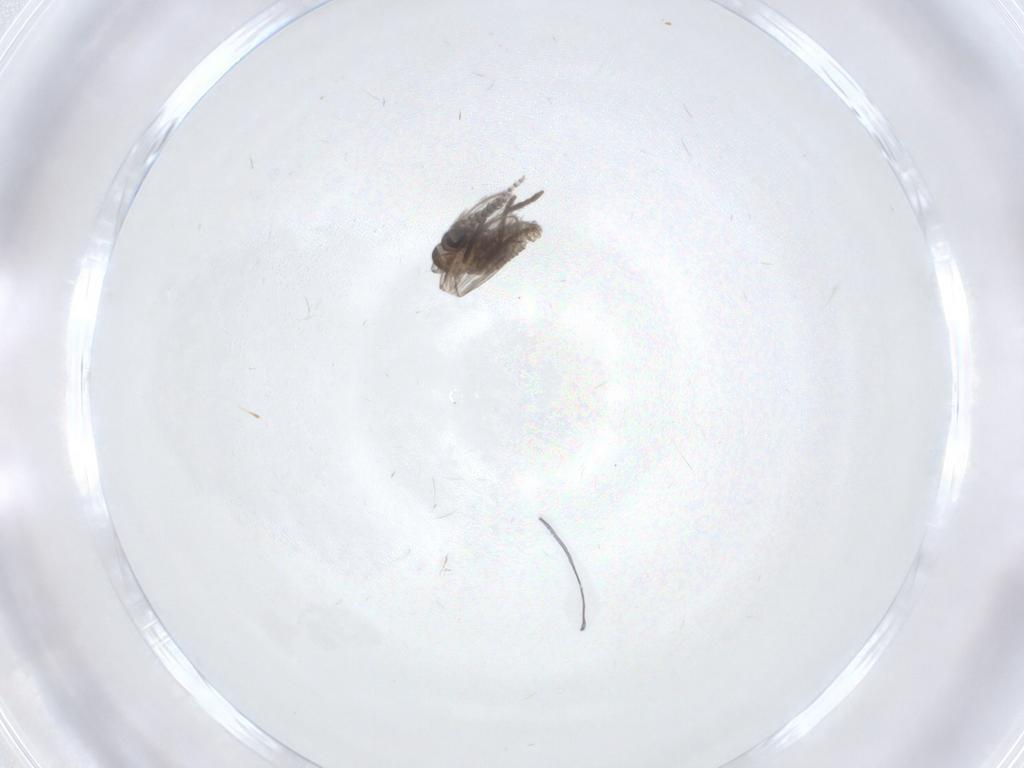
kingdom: Animalia
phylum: Arthropoda
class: Insecta
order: Diptera
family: Psychodidae
